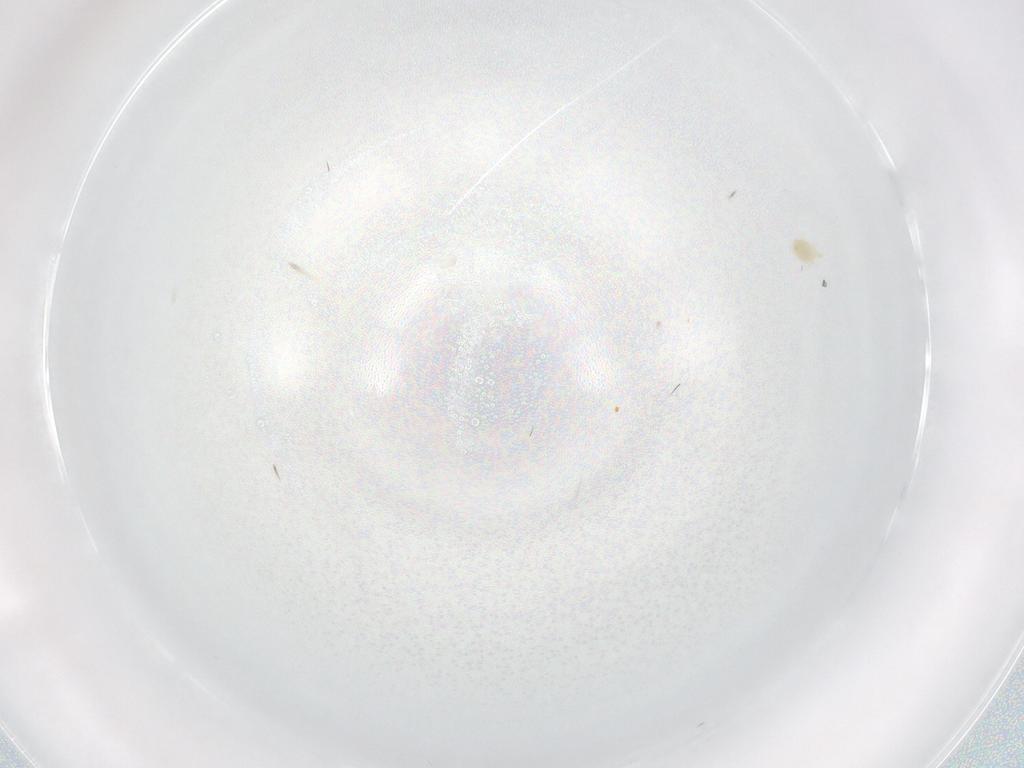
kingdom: Animalia
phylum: Arthropoda
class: Arachnida
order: Trombidiformes
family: Tetranychidae
